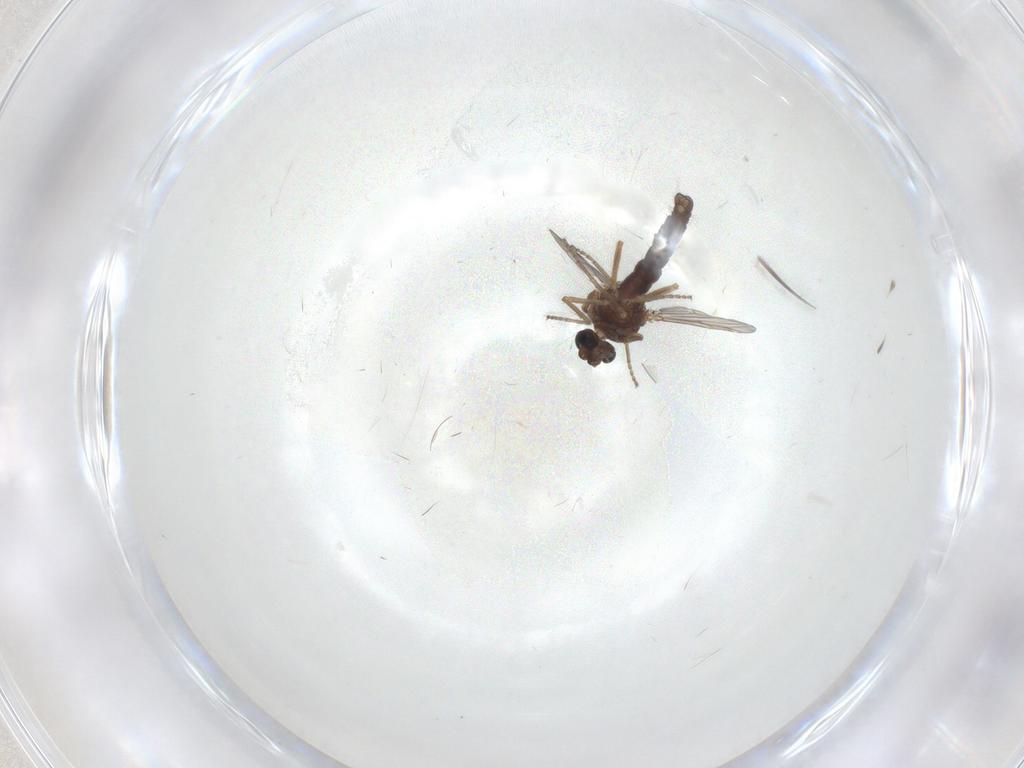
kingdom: Animalia
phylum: Arthropoda
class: Insecta
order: Diptera
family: Ceratopogonidae
